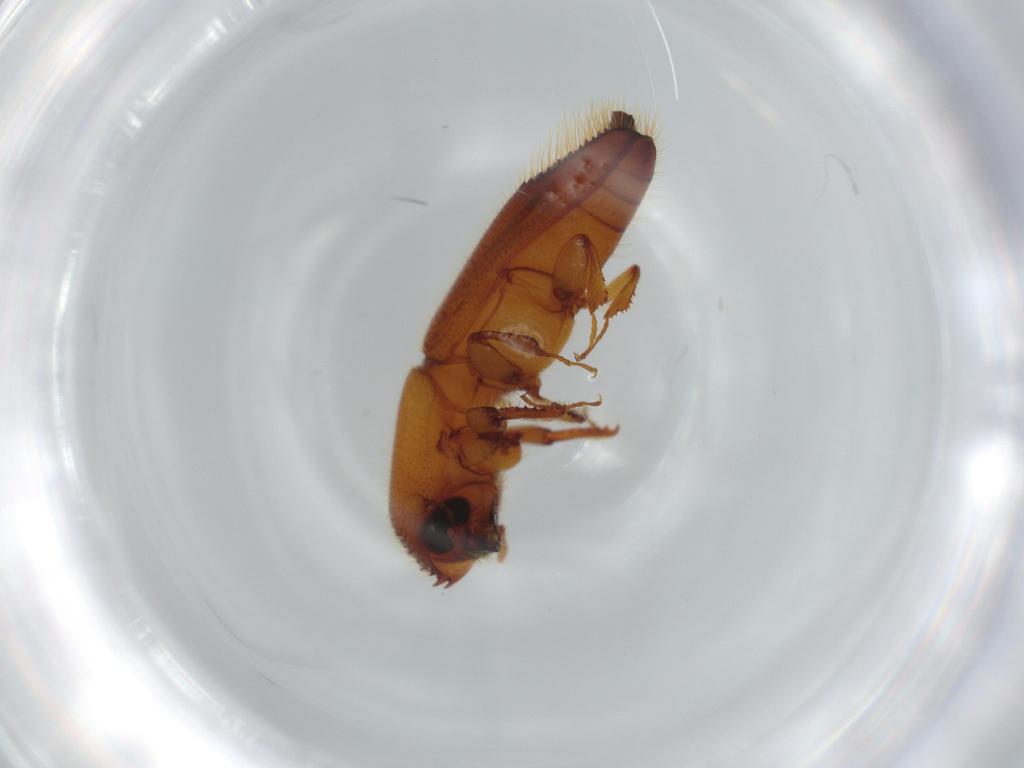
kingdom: Animalia
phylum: Arthropoda
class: Insecta
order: Coleoptera
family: Curculionidae
